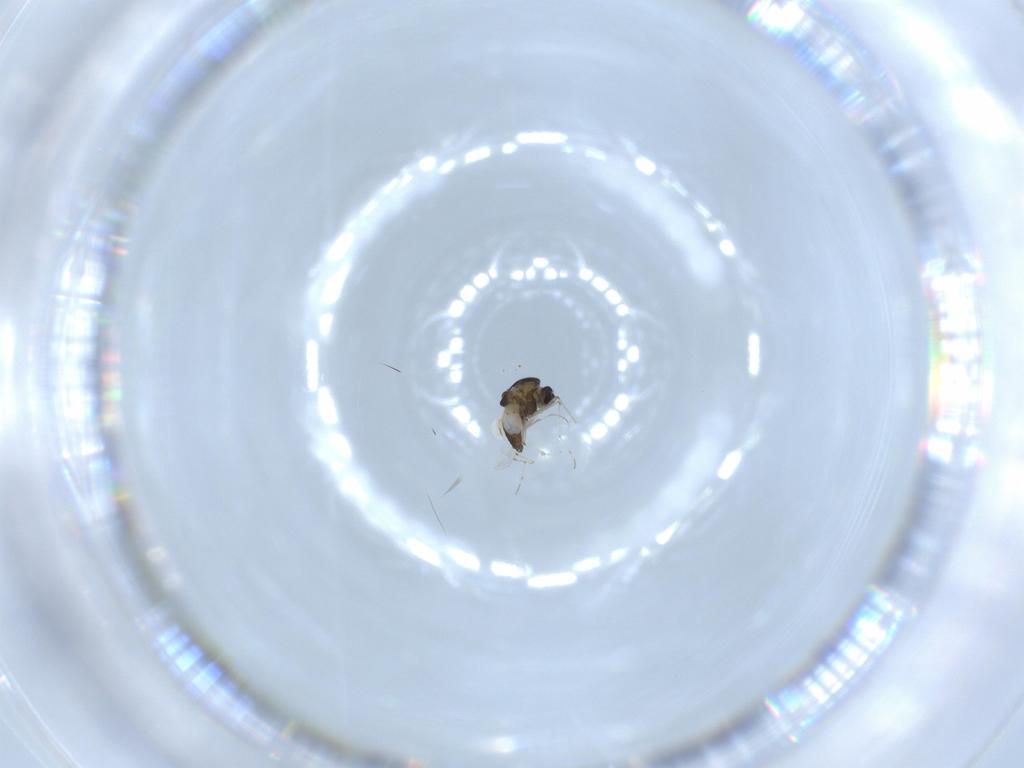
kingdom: Animalia
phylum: Arthropoda
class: Insecta
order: Diptera
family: Chironomidae
